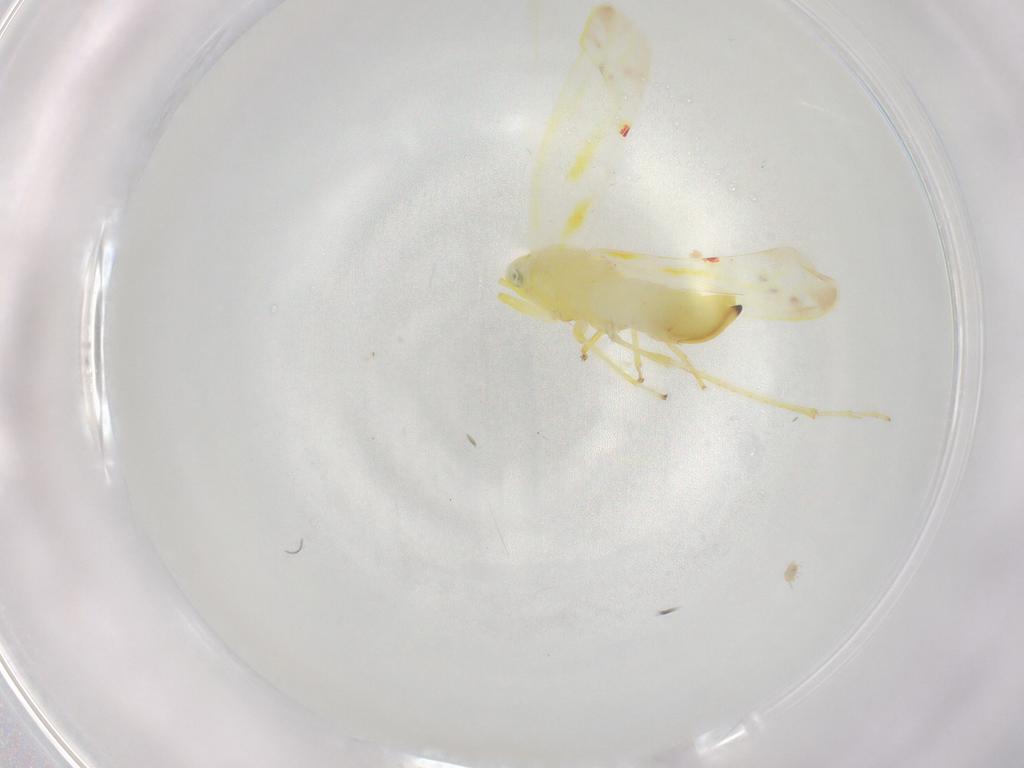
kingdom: Animalia
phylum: Arthropoda
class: Insecta
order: Hemiptera
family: Cicadellidae
